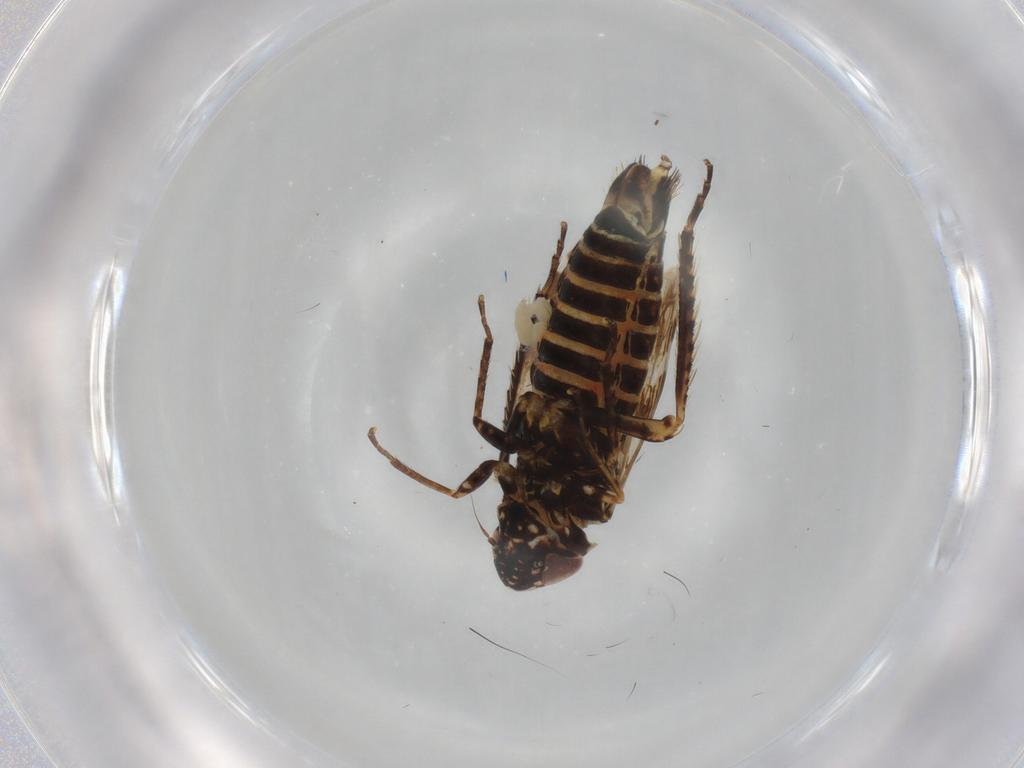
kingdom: Animalia
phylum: Arthropoda
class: Insecta
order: Hemiptera
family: Cicadellidae
